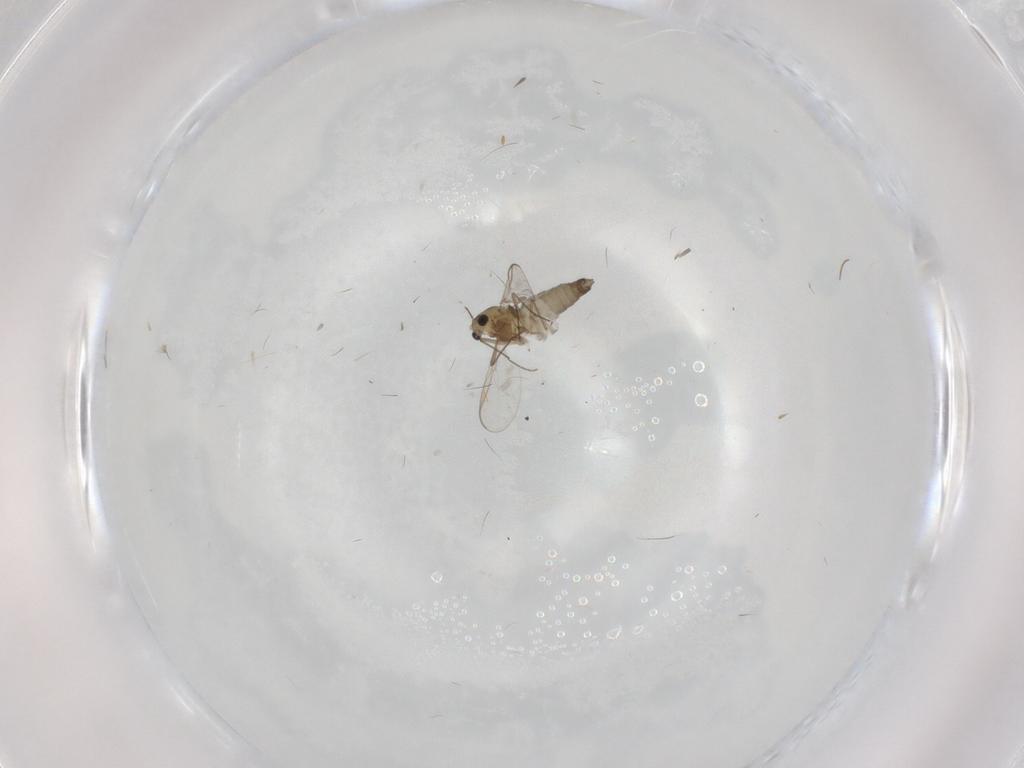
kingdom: Animalia
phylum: Arthropoda
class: Insecta
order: Diptera
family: Chironomidae
